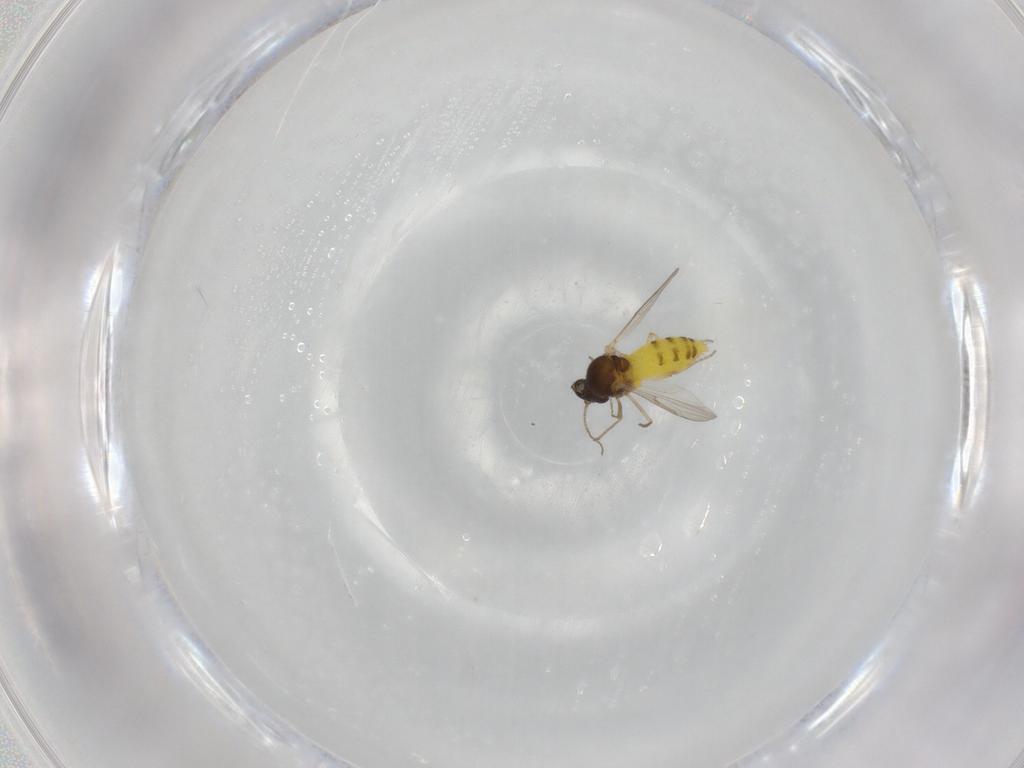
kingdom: Animalia
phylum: Arthropoda
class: Insecta
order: Diptera
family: Ceratopogonidae
